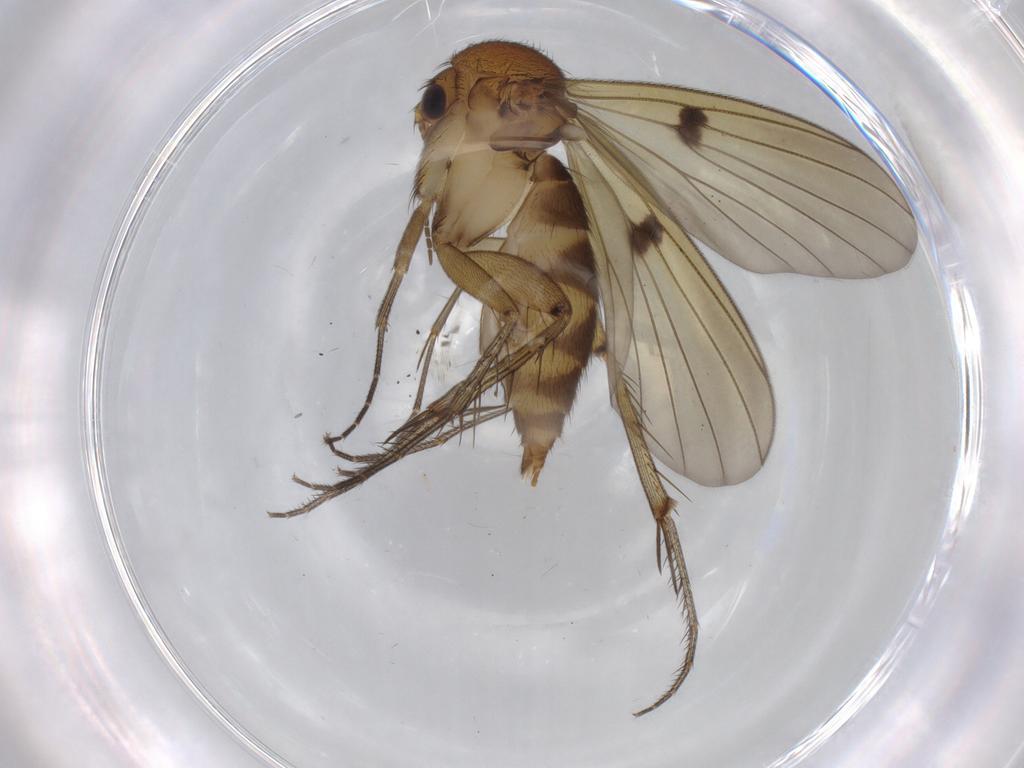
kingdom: Animalia
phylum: Arthropoda
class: Insecta
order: Diptera
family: Mycetophilidae
